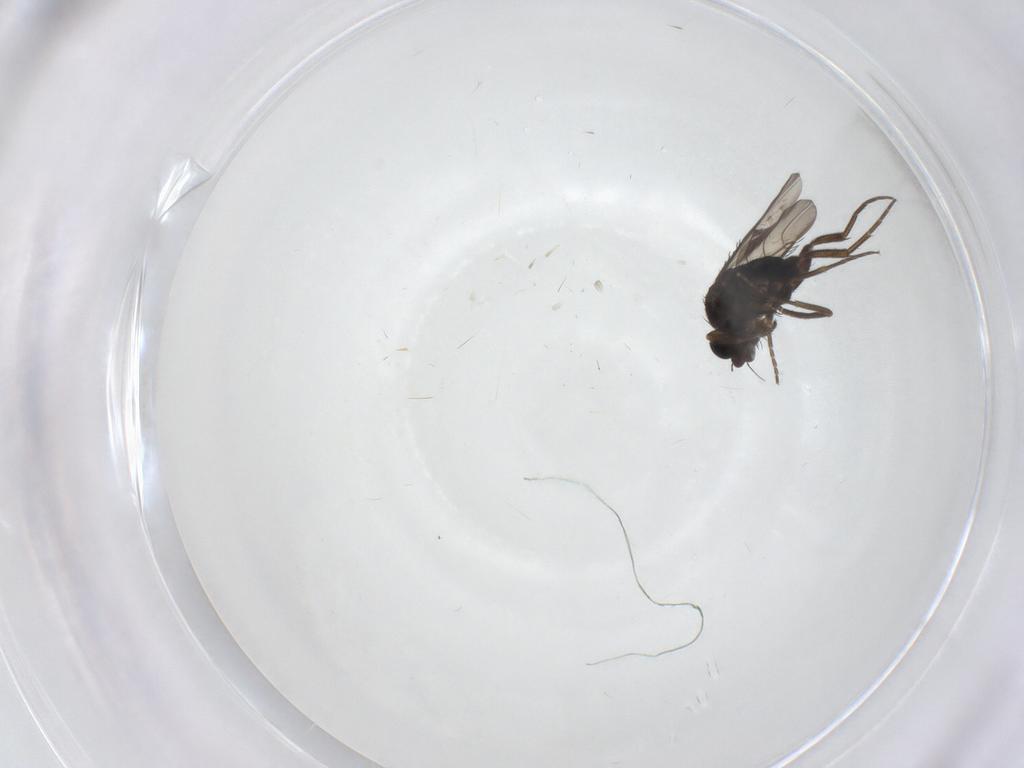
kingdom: Animalia
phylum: Arthropoda
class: Insecta
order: Diptera
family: Phoridae
